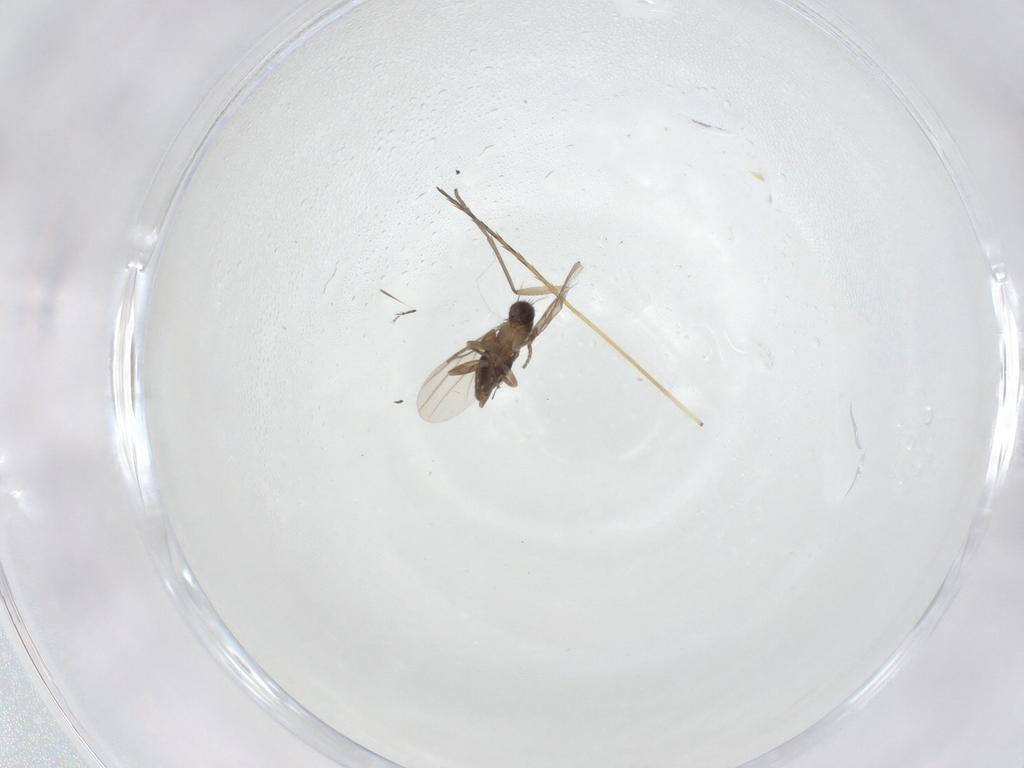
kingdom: Animalia
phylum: Arthropoda
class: Insecta
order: Diptera
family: Phoridae
